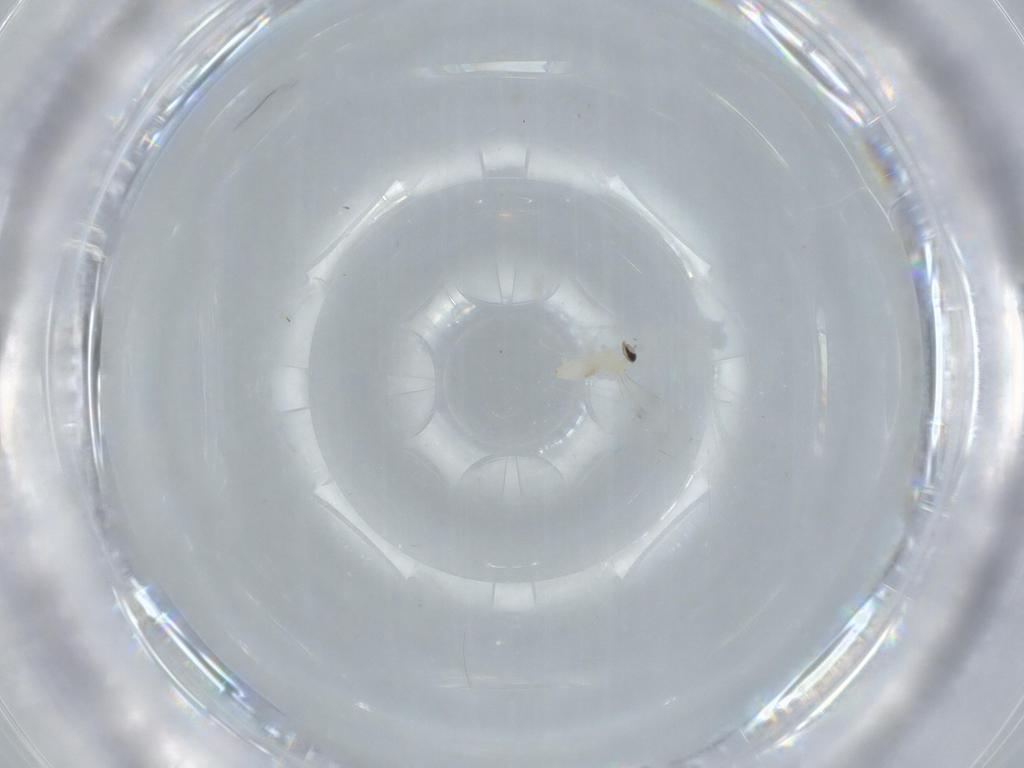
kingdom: Animalia
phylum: Arthropoda
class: Insecta
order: Diptera
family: Cecidomyiidae
